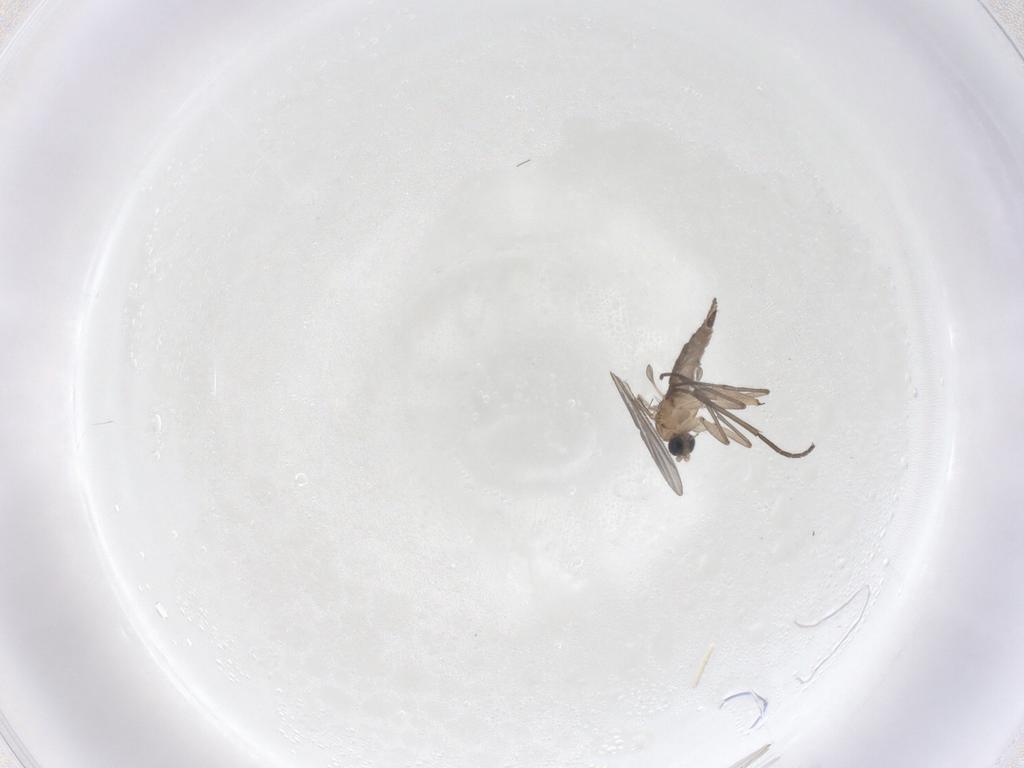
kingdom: Animalia
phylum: Arthropoda
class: Insecta
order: Diptera
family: Sciaridae
